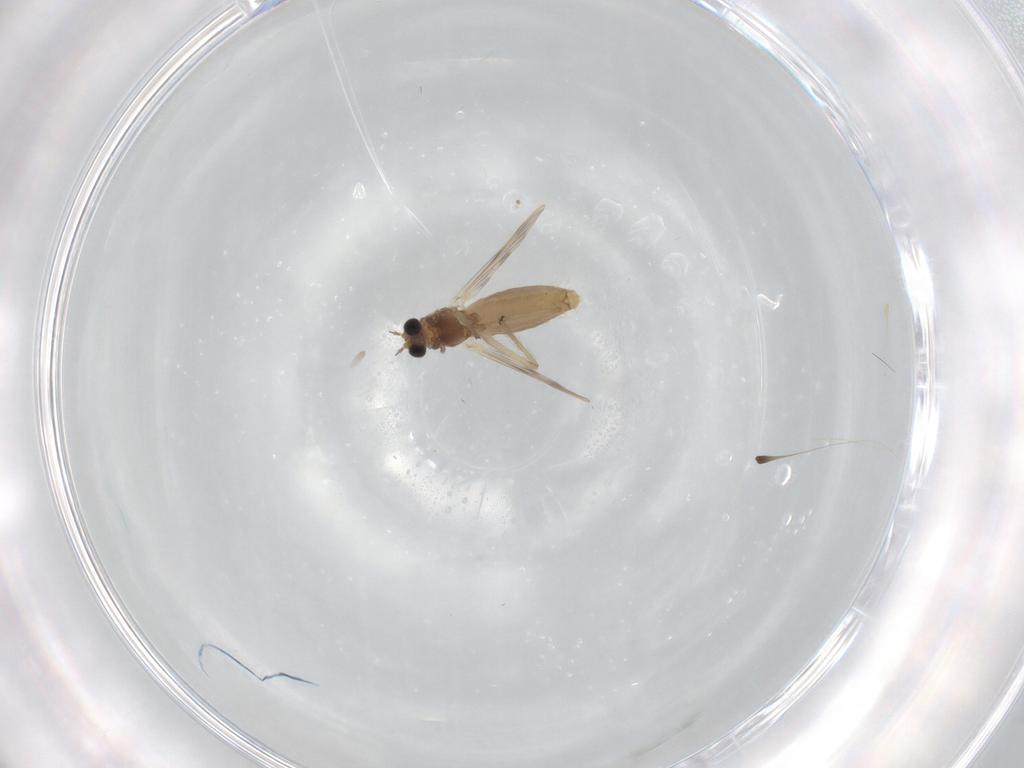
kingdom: Animalia
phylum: Arthropoda
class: Insecta
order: Diptera
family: Chironomidae
